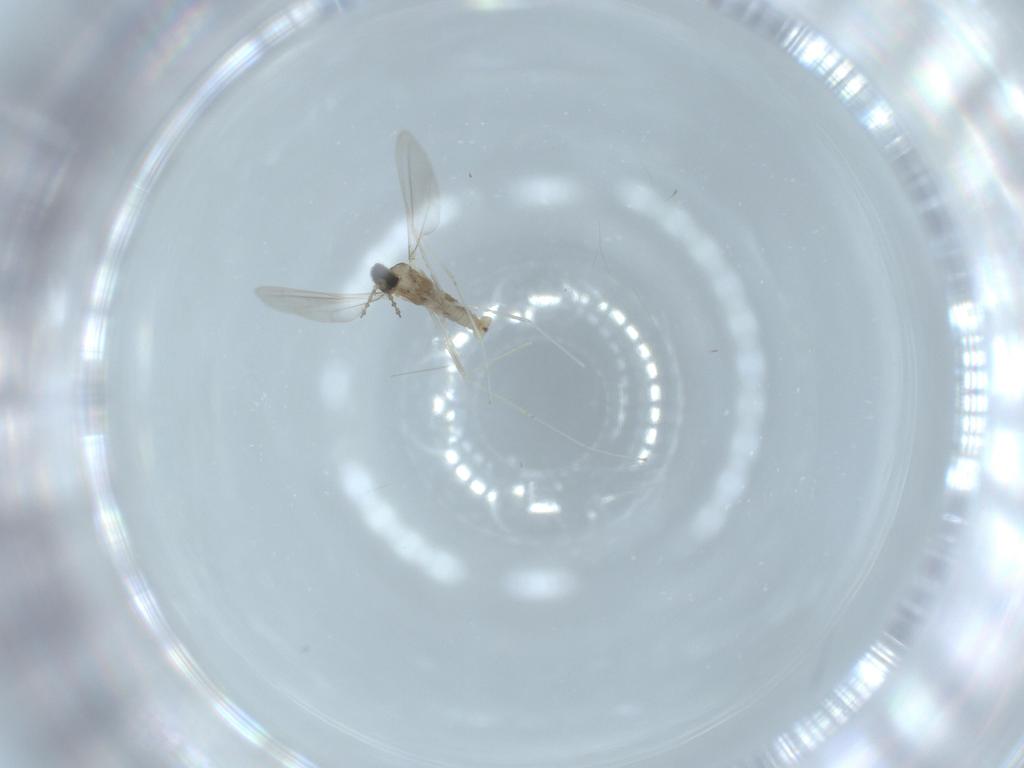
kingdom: Animalia
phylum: Arthropoda
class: Insecta
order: Diptera
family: Cecidomyiidae
